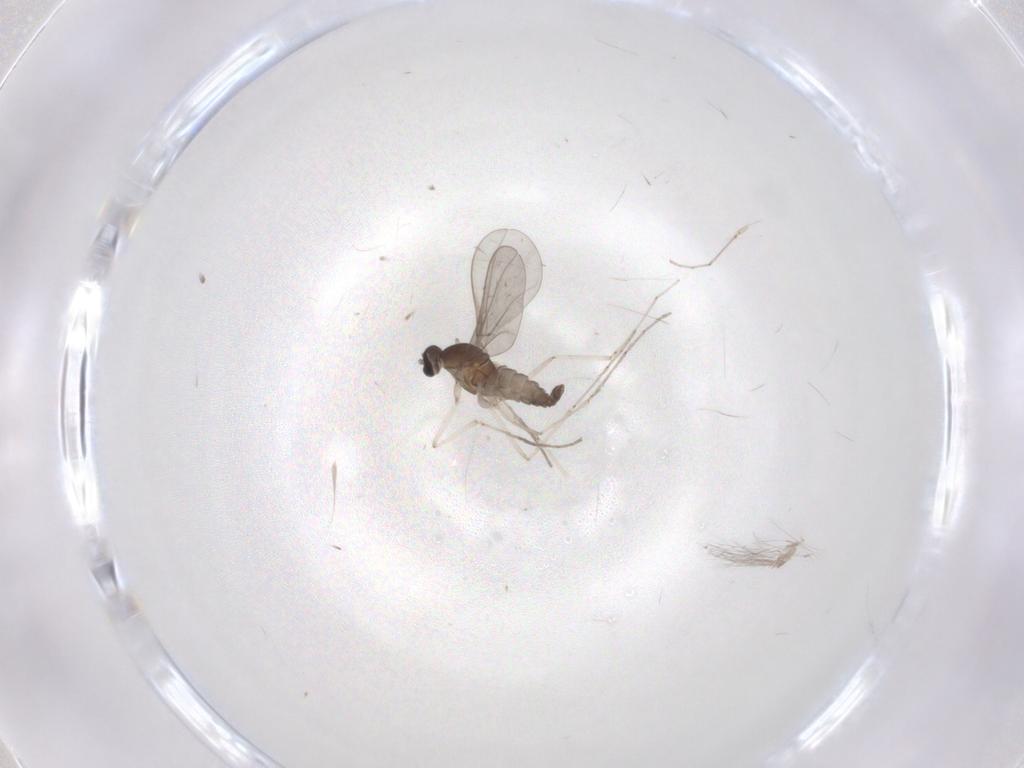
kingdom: Animalia
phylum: Arthropoda
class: Insecta
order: Diptera
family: Cecidomyiidae
